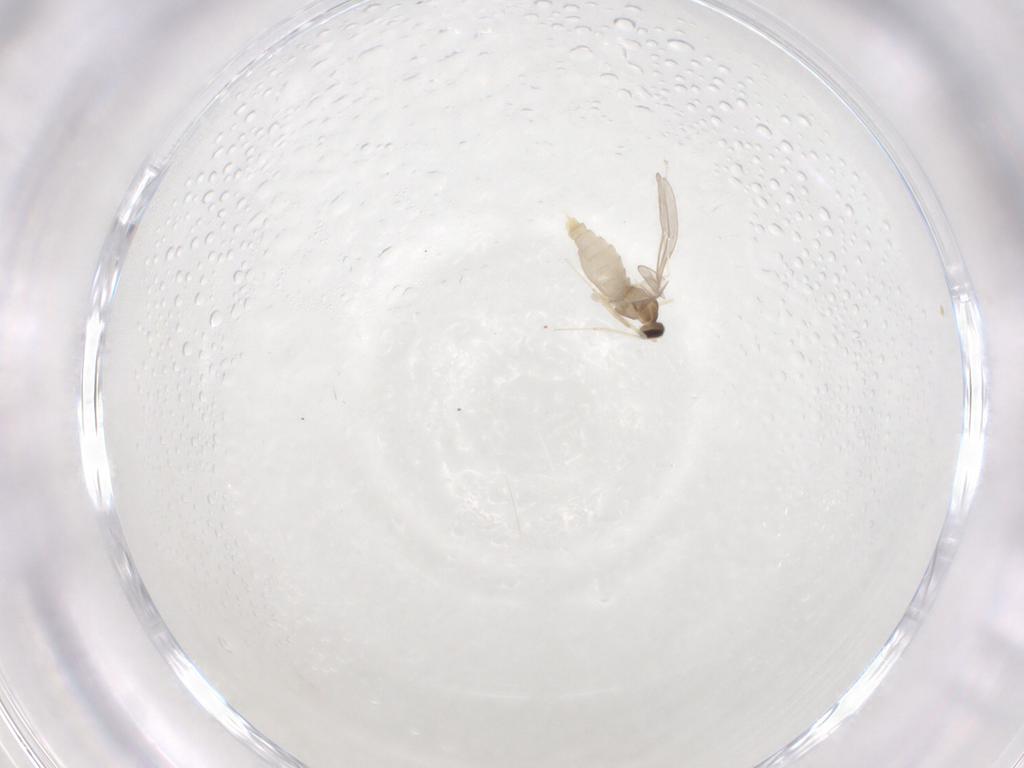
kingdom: Animalia
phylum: Arthropoda
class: Insecta
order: Diptera
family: Cecidomyiidae
